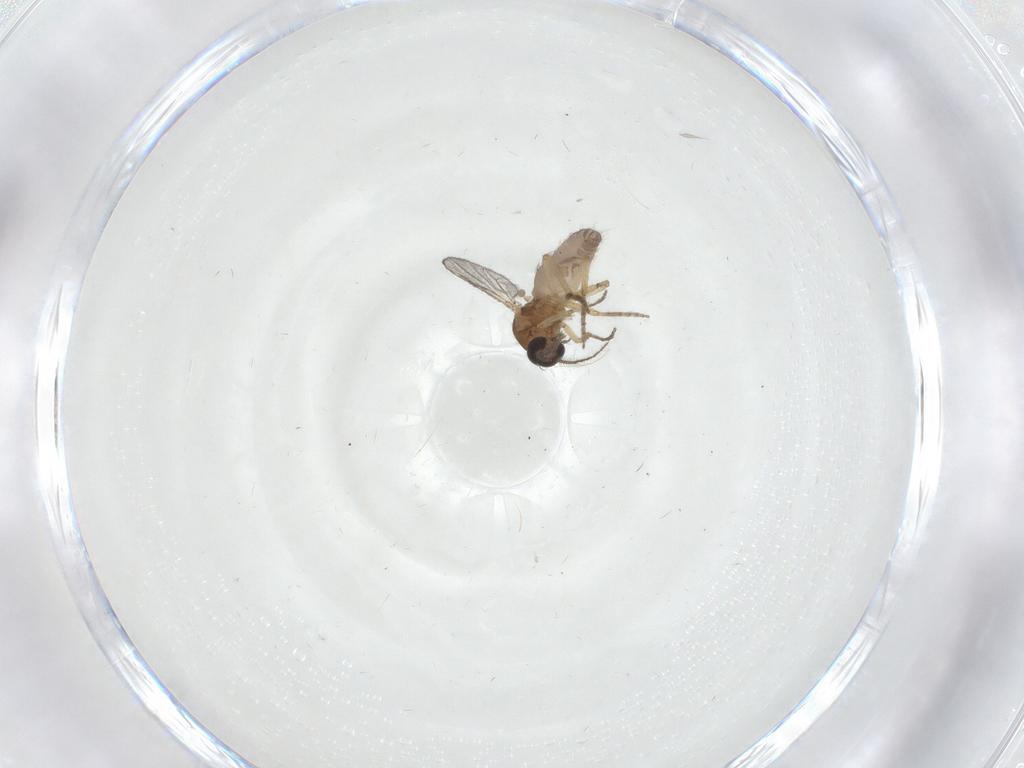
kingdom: Animalia
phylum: Arthropoda
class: Insecta
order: Diptera
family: Ceratopogonidae
